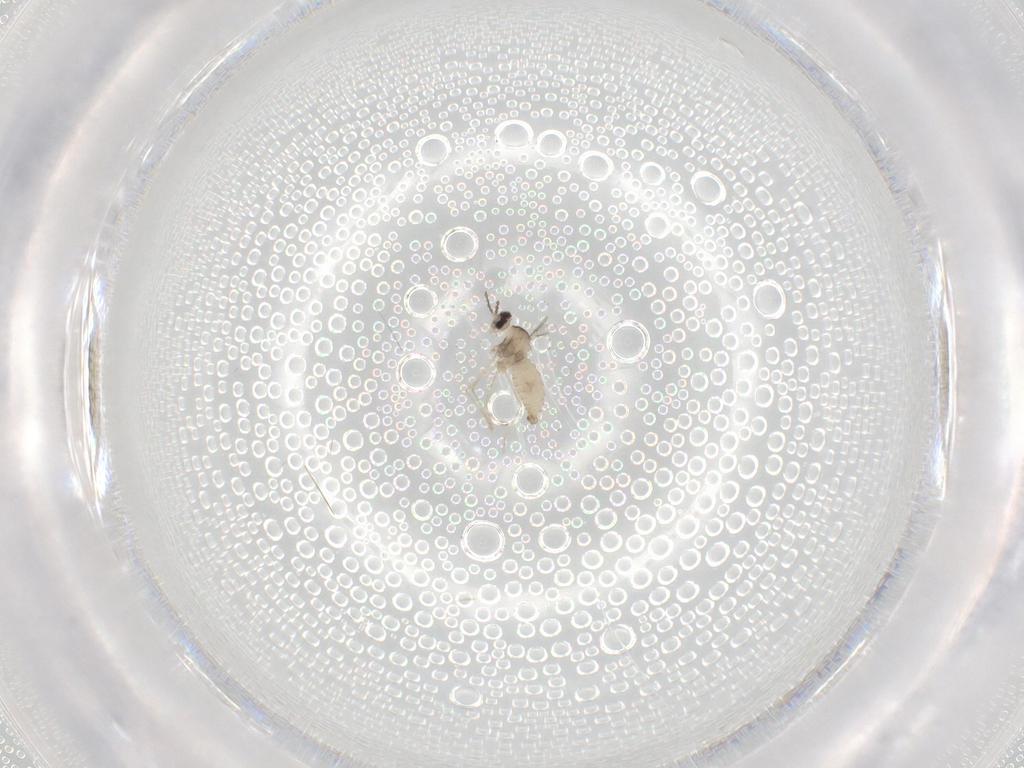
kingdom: Animalia
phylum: Arthropoda
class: Insecta
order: Diptera
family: Cecidomyiidae
